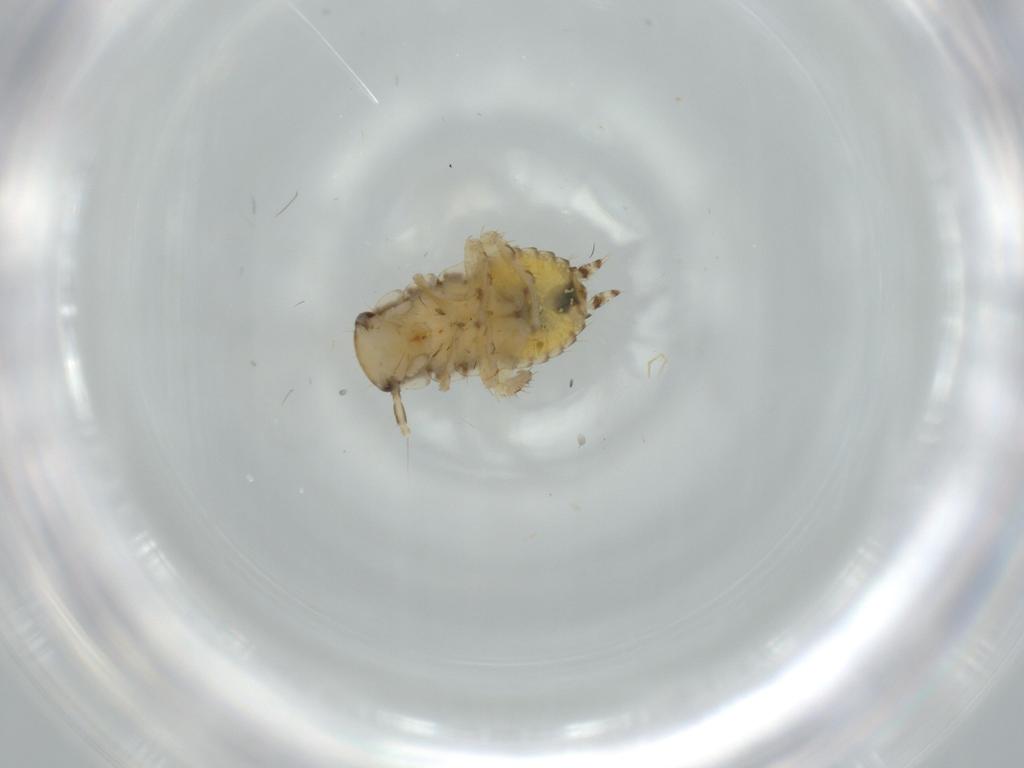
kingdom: Animalia
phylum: Arthropoda
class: Insecta
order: Blattodea
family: Ectobiidae
